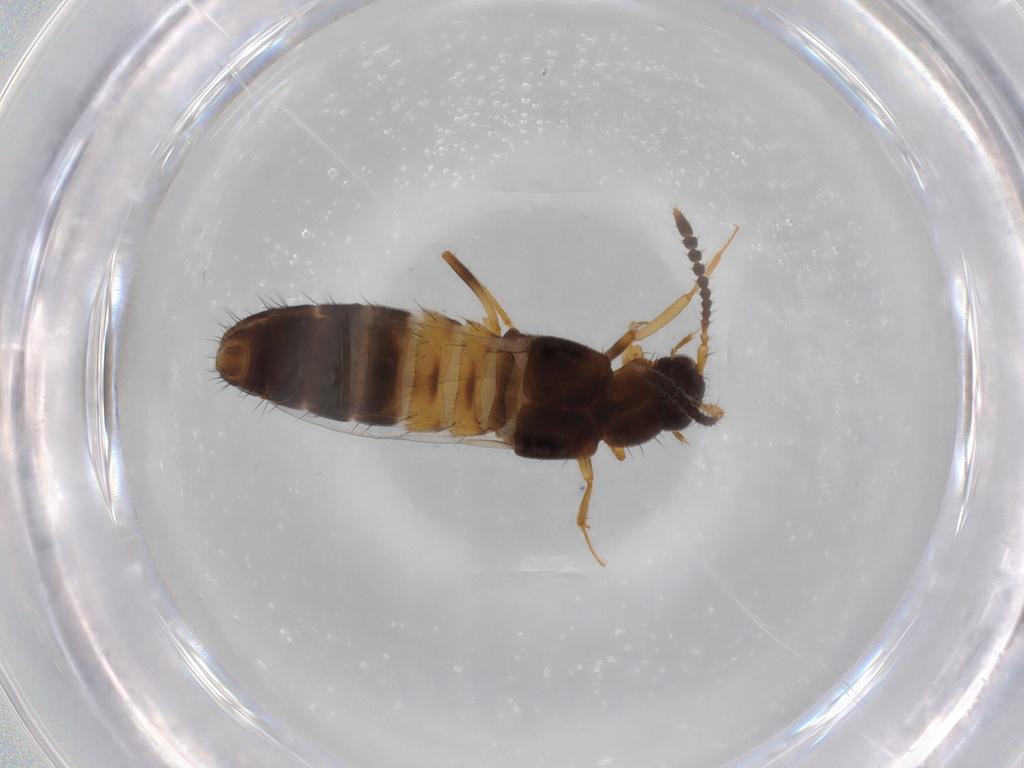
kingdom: Animalia
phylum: Arthropoda
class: Insecta
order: Coleoptera
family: Staphylinidae
